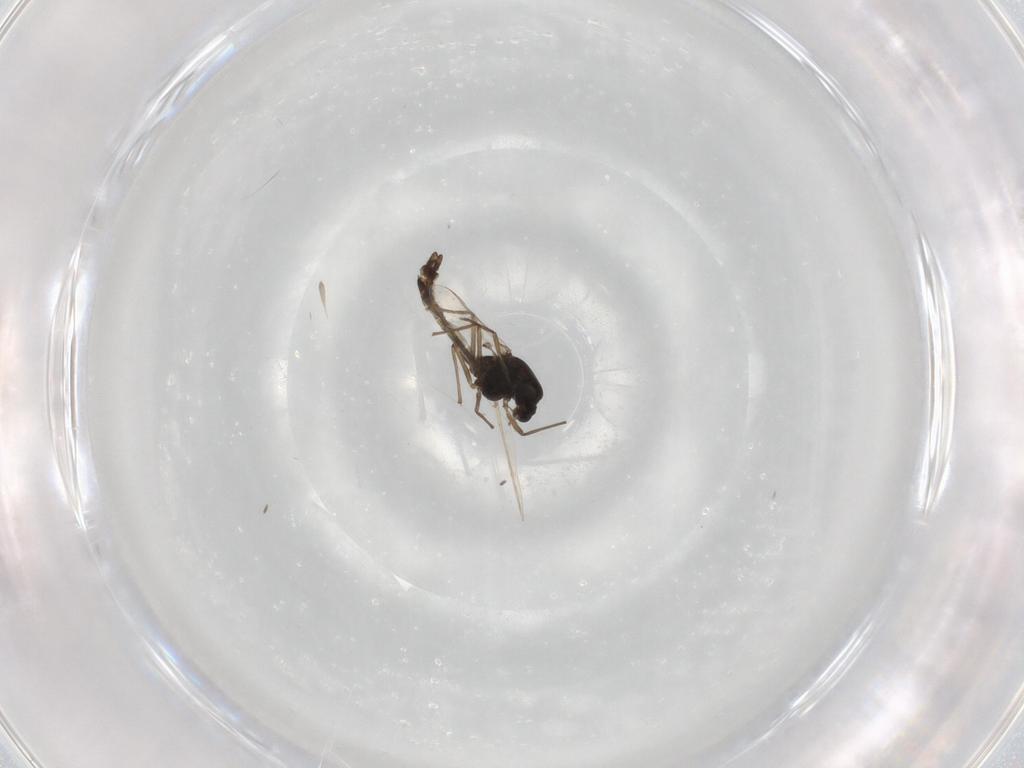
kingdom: Animalia
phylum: Arthropoda
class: Insecta
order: Diptera
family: Chironomidae
